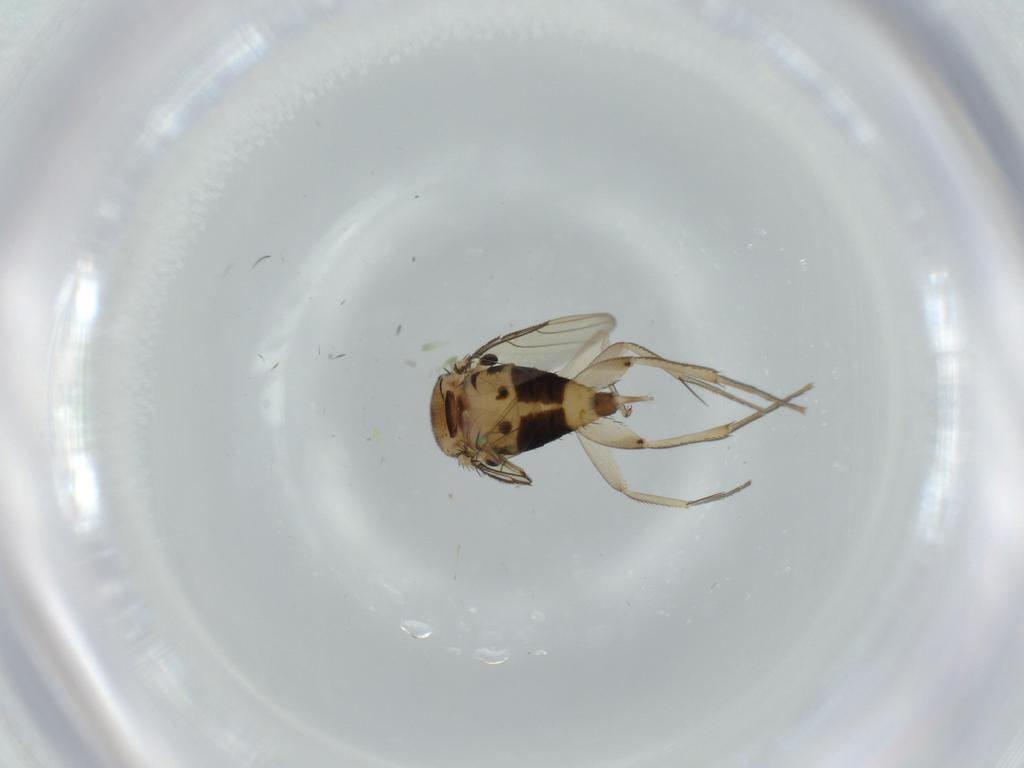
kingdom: Animalia
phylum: Arthropoda
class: Insecta
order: Diptera
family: Phoridae
